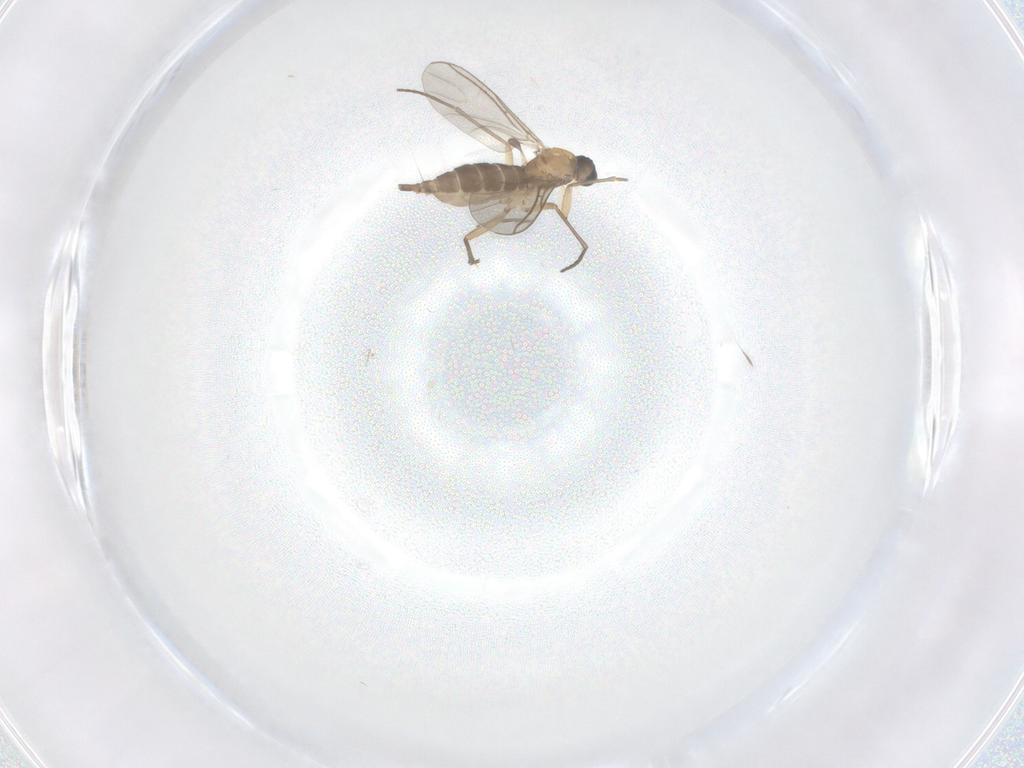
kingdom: Animalia
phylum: Arthropoda
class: Insecta
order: Diptera
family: Sciaridae
